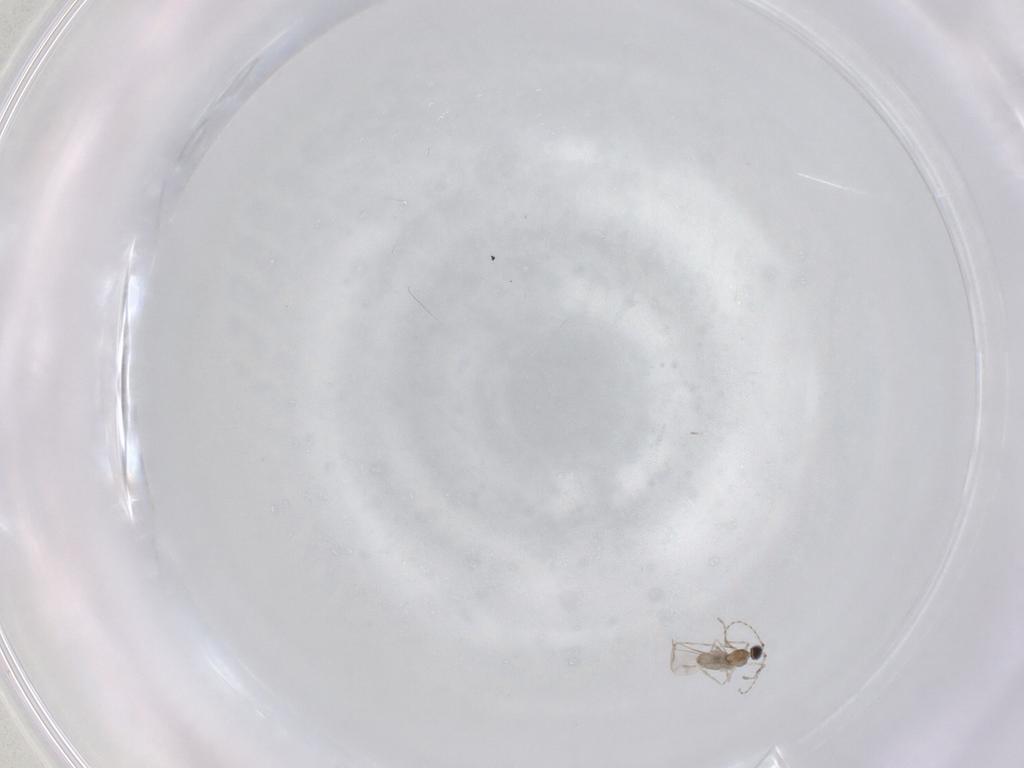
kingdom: Animalia
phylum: Arthropoda
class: Insecta
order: Diptera
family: Cecidomyiidae
